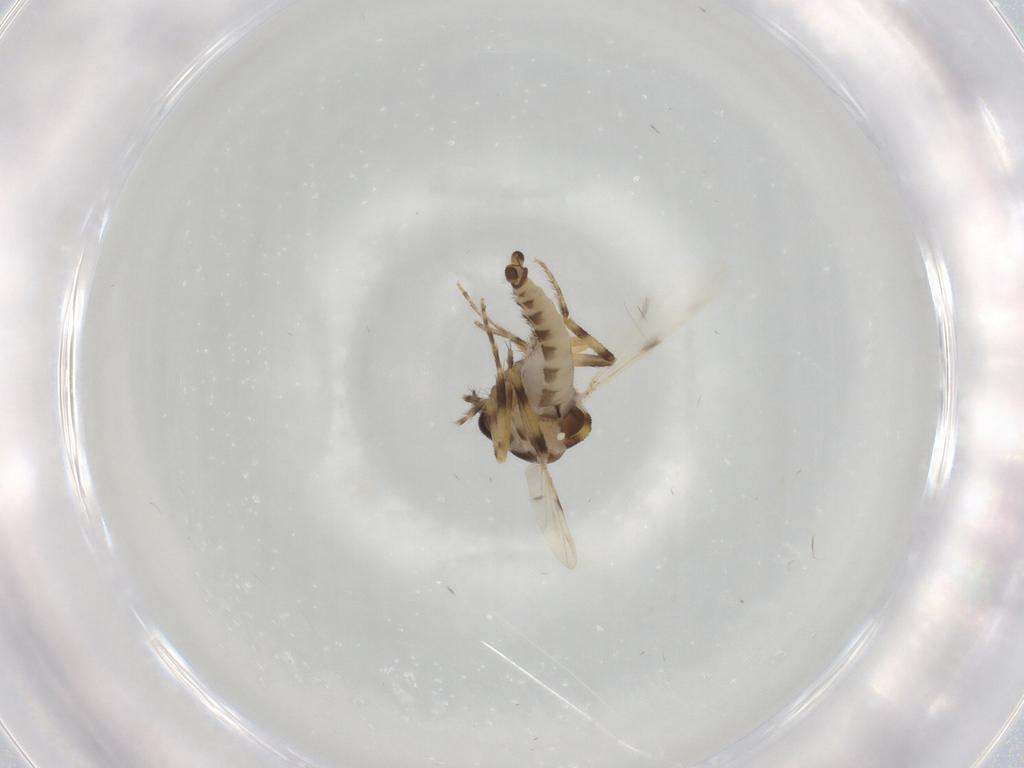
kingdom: Animalia
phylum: Arthropoda
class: Insecta
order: Diptera
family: Ceratopogonidae
